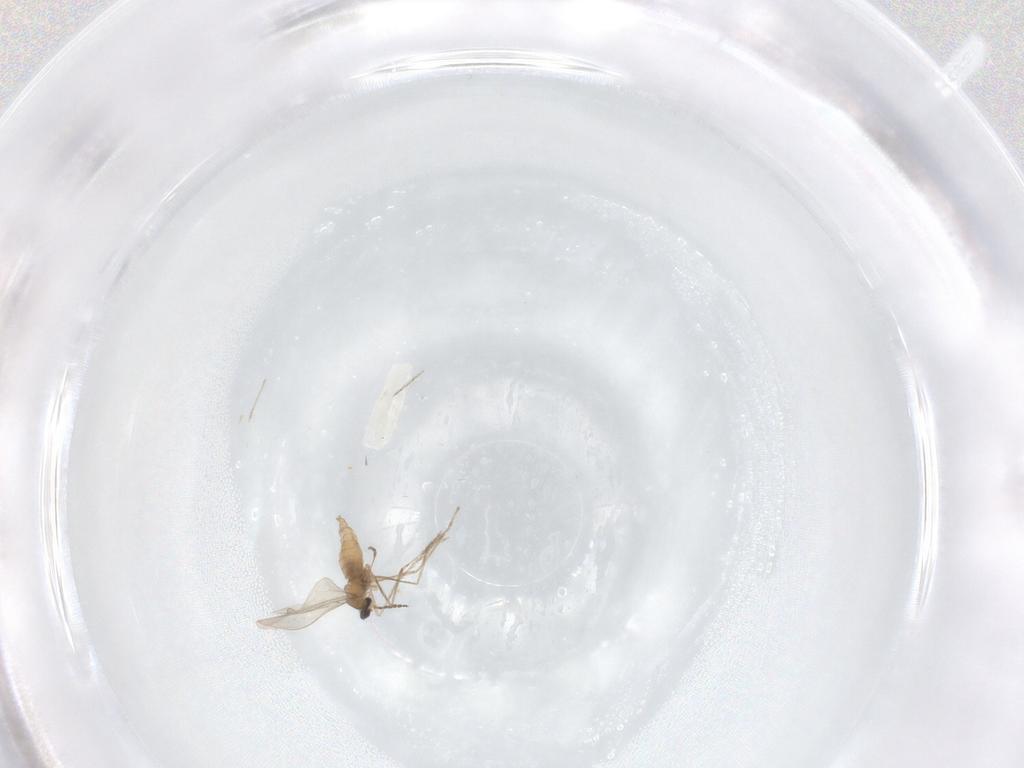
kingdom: Animalia
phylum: Arthropoda
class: Insecta
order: Diptera
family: Cecidomyiidae
